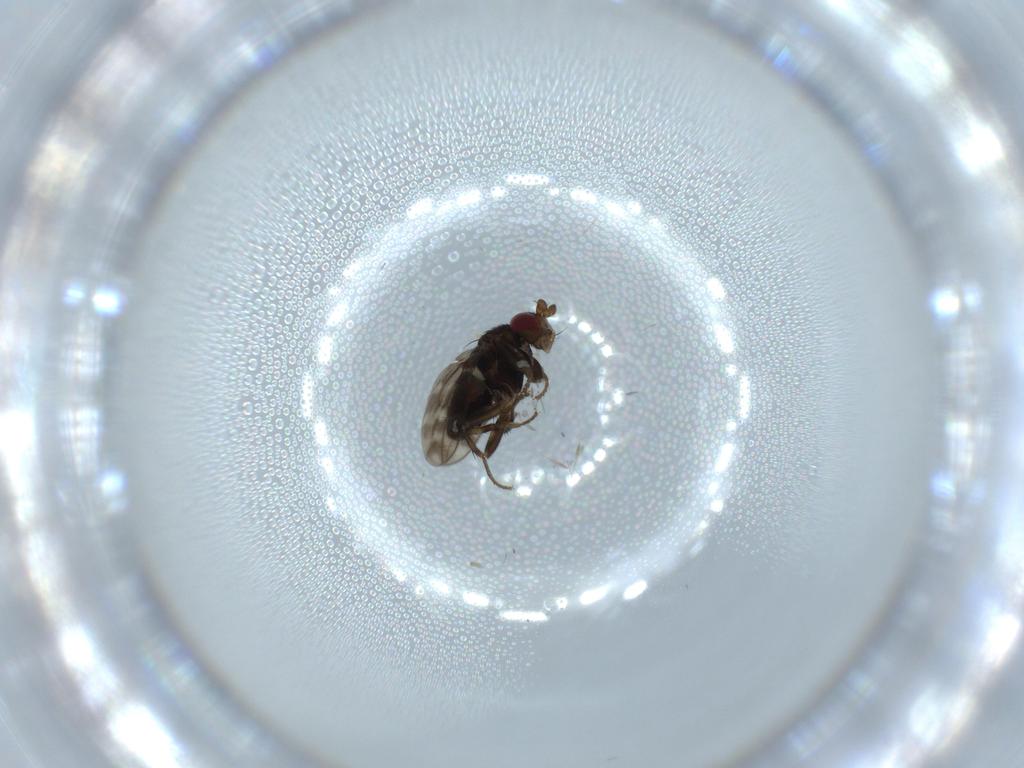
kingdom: Animalia
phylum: Arthropoda
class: Insecta
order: Diptera
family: Sphaeroceridae
